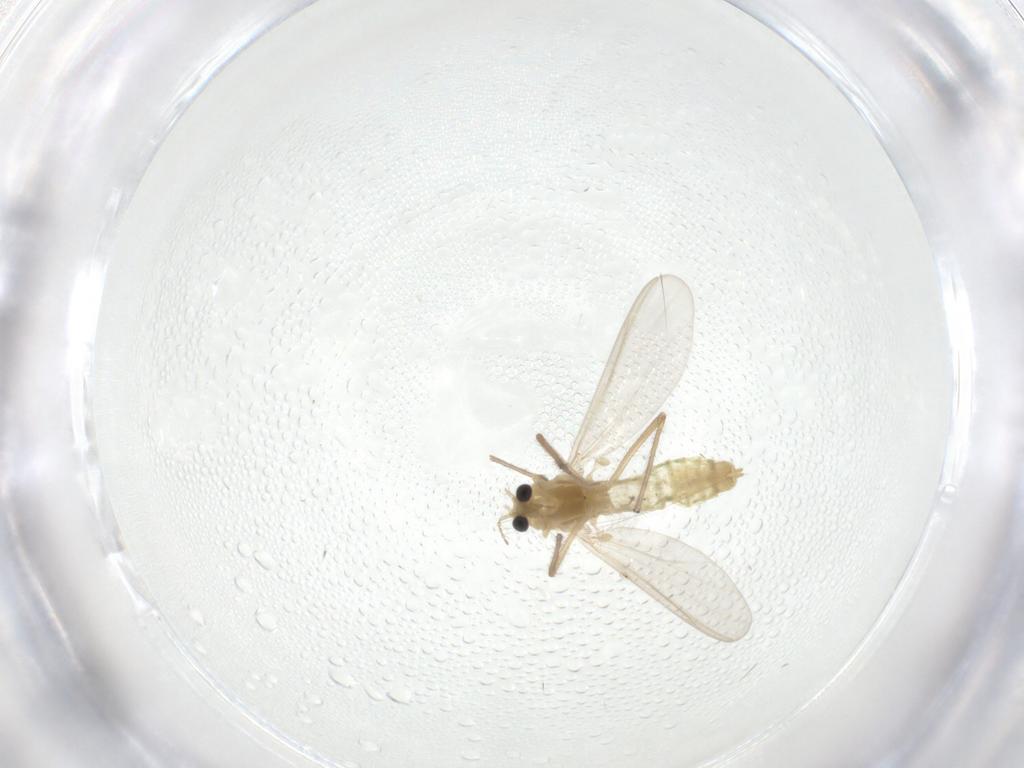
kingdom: Animalia
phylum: Arthropoda
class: Insecta
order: Diptera
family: Chironomidae
